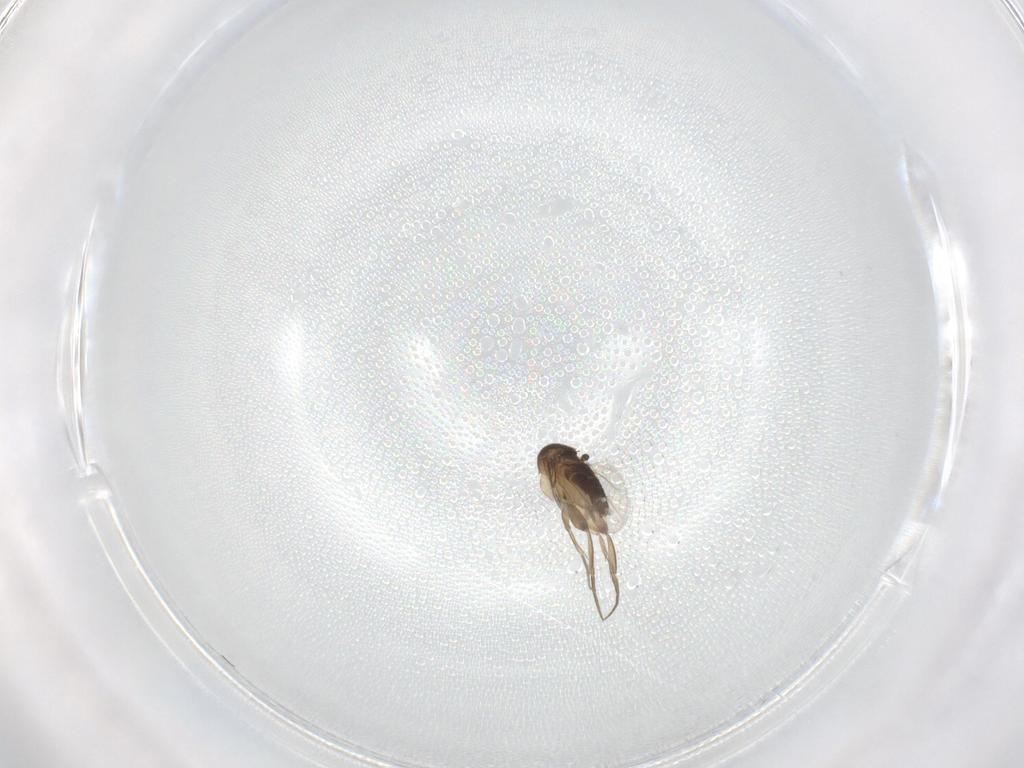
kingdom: Animalia
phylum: Arthropoda
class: Insecta
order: Diptera
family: Phoridae
